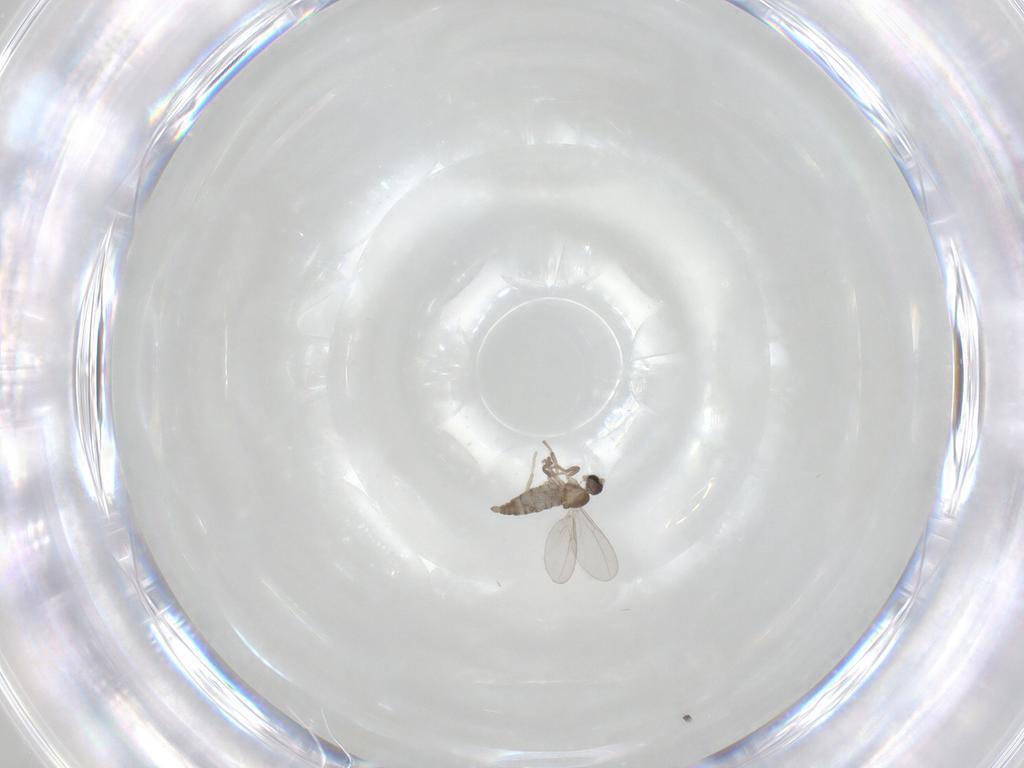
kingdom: Animalia
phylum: Arthropoda
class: Insecta
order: Diptera
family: Cecidomyiidae
